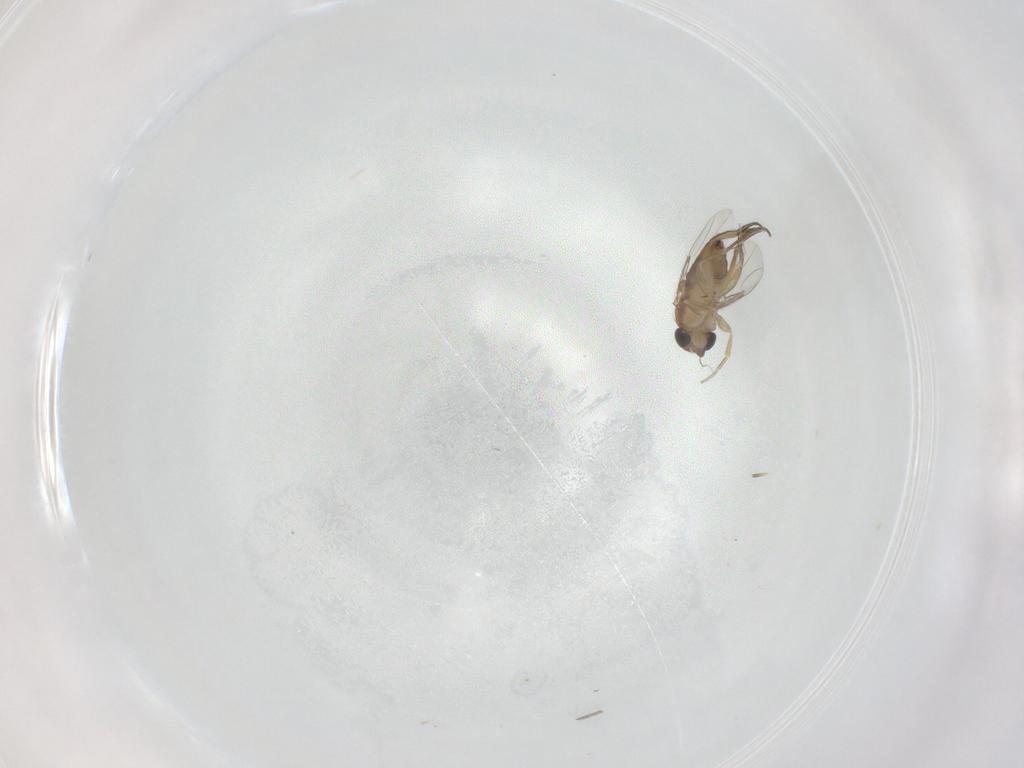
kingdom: Animalia
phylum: Arthropoda
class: Insecta
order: Diptera
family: Phoridae
